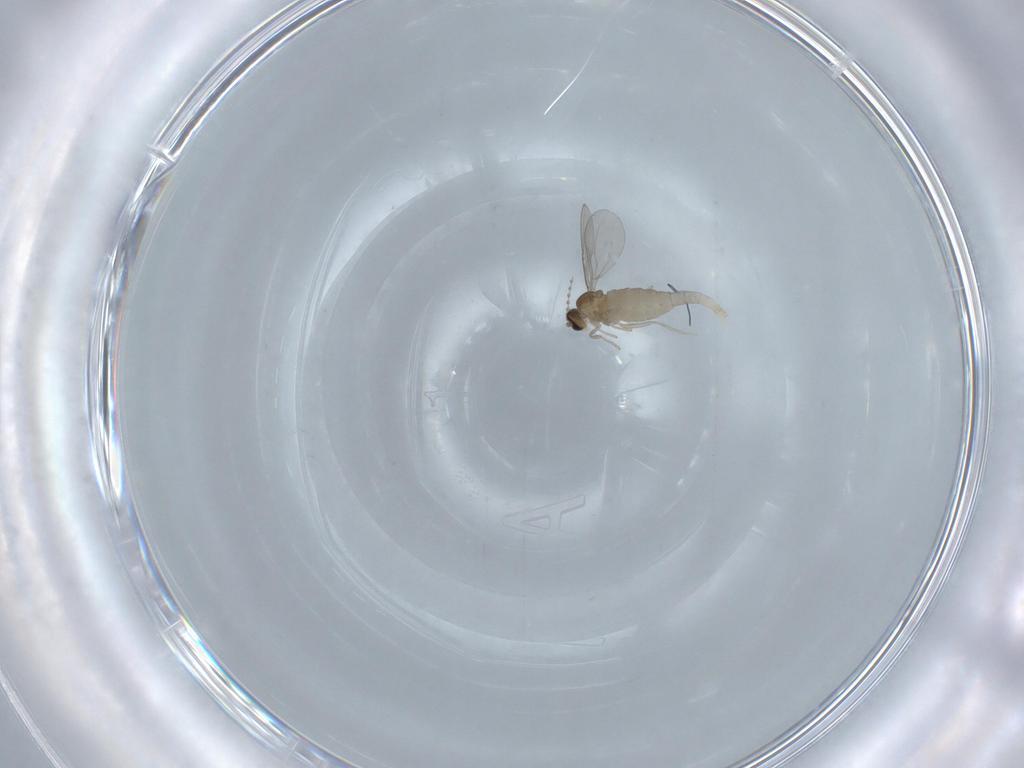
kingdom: Animalia
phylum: Arthropoda
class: Insecta
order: Diptera
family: Cecidomyiidae
